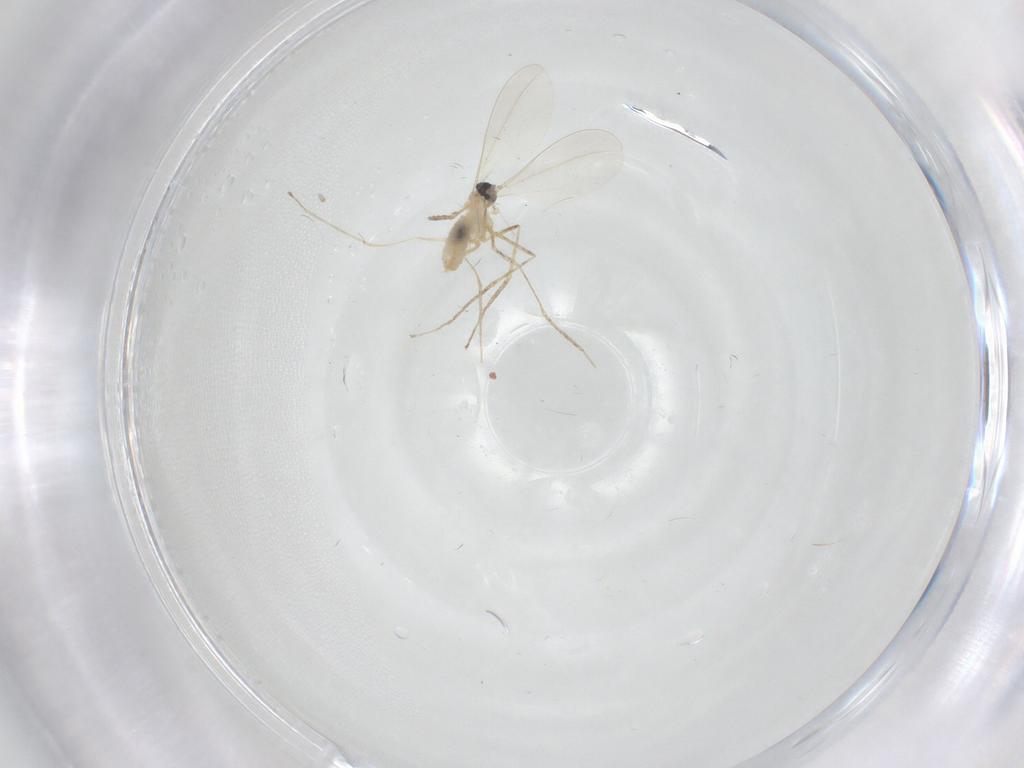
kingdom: Animalia
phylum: Arthropoda
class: Insecta
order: Diptera
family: Cecidomyiidae
